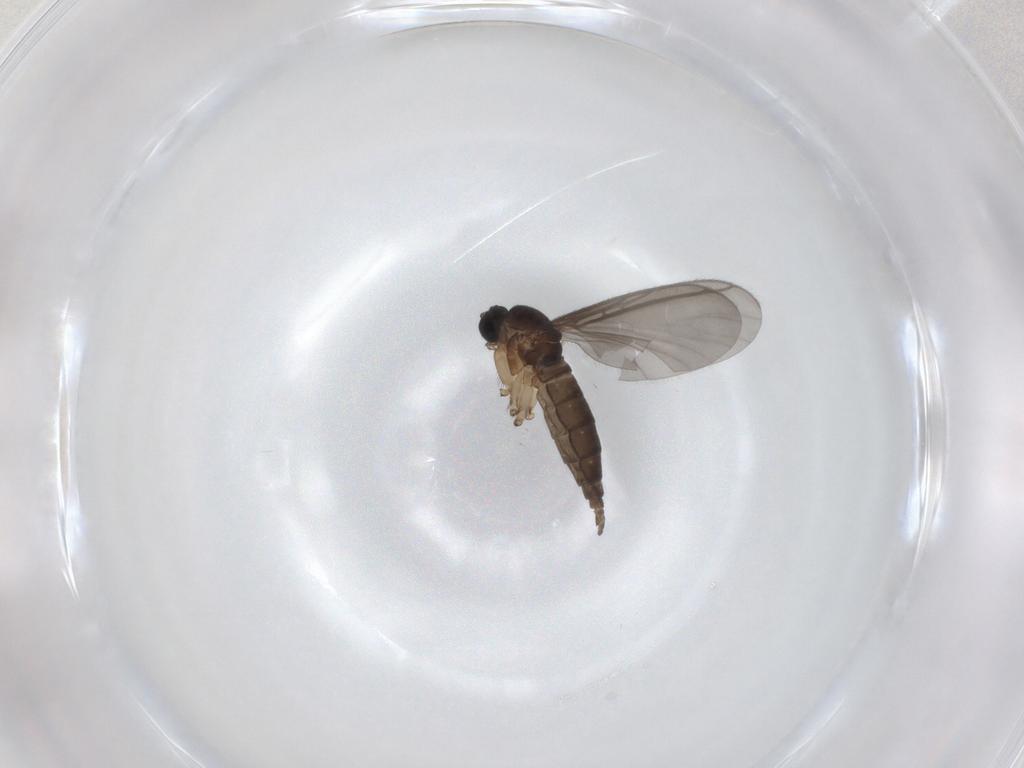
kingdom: Animalia
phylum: Arthropoda
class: Insecta
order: Diptera
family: Sciaridae
